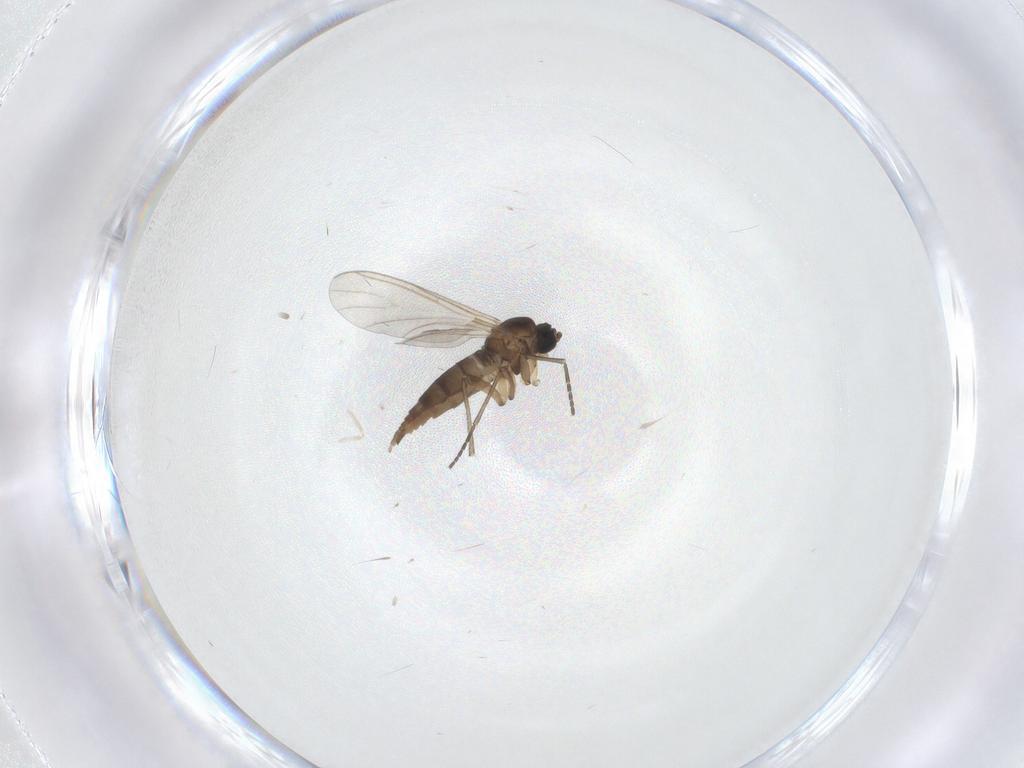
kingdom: Animalia
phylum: Arthropoda
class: Insecta
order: Diptera
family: Cecidomyiidae
